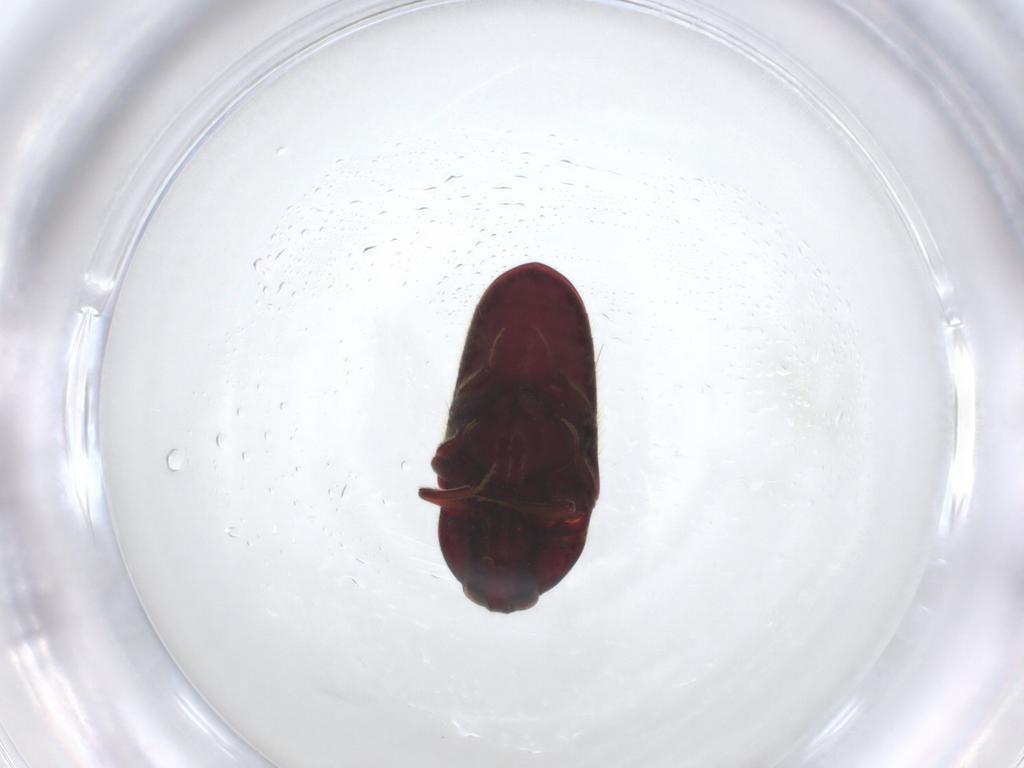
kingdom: Animalia
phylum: Arthropoda
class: Insecta
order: Coleoptera
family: Throscidae
